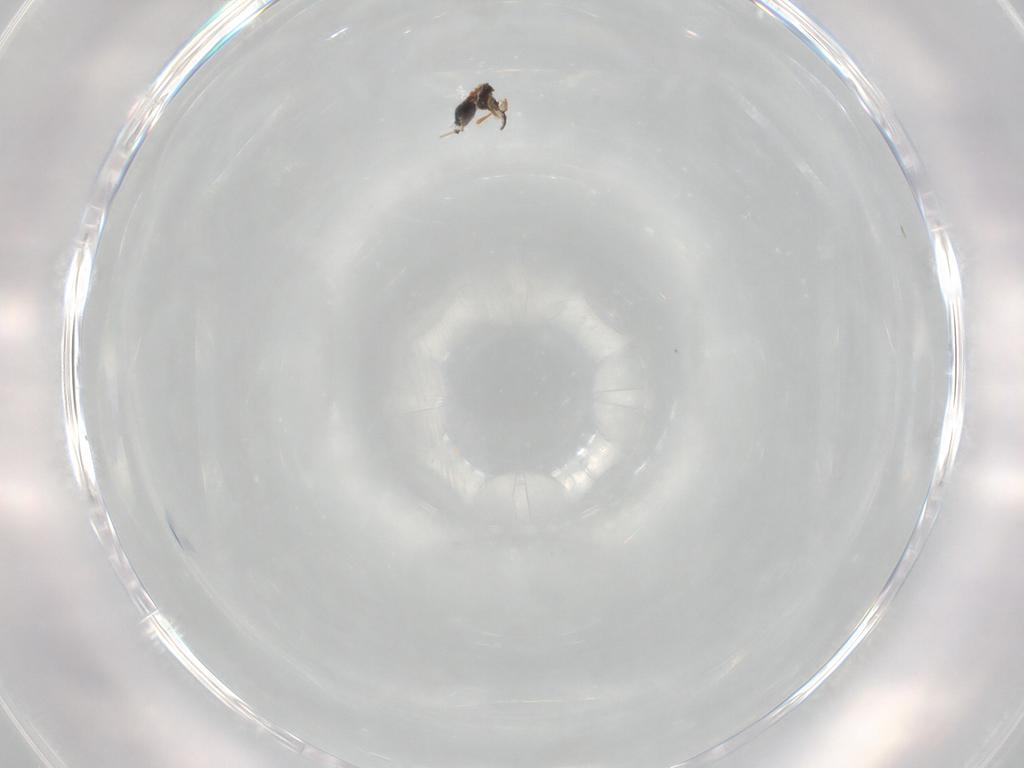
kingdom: Animalia
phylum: Arthropoda
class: Insecta
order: Hymenoptera
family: Platygastridae
